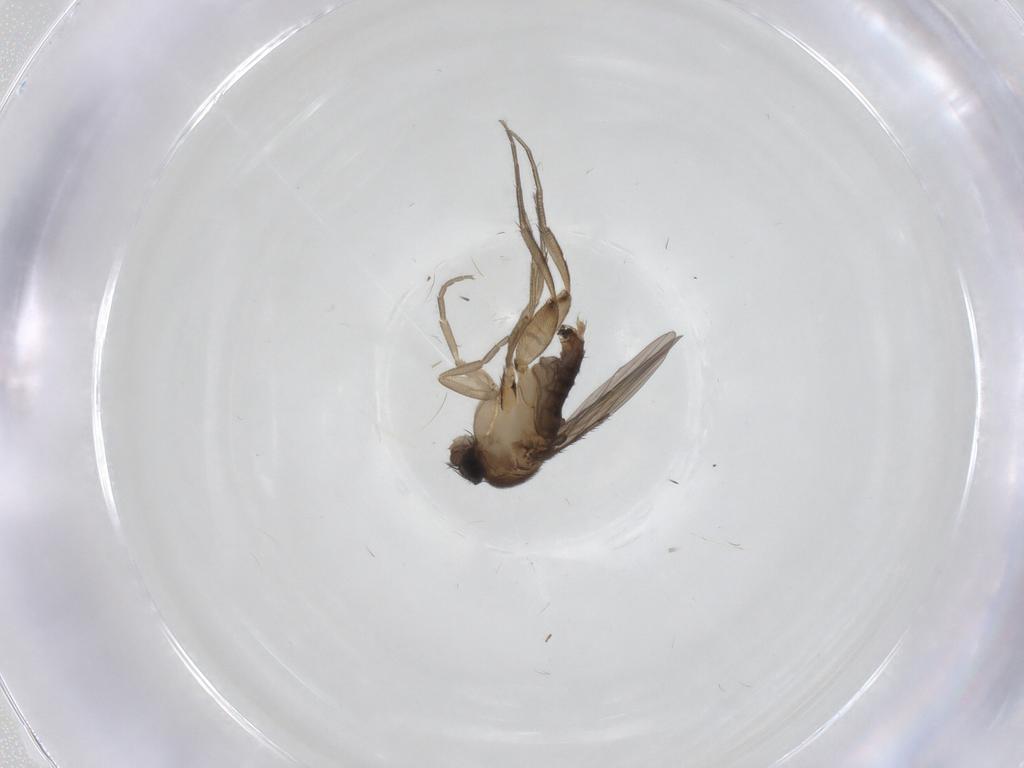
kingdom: Animalia
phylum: Arthropoda
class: Insecta
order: Diptera
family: Phoridae
